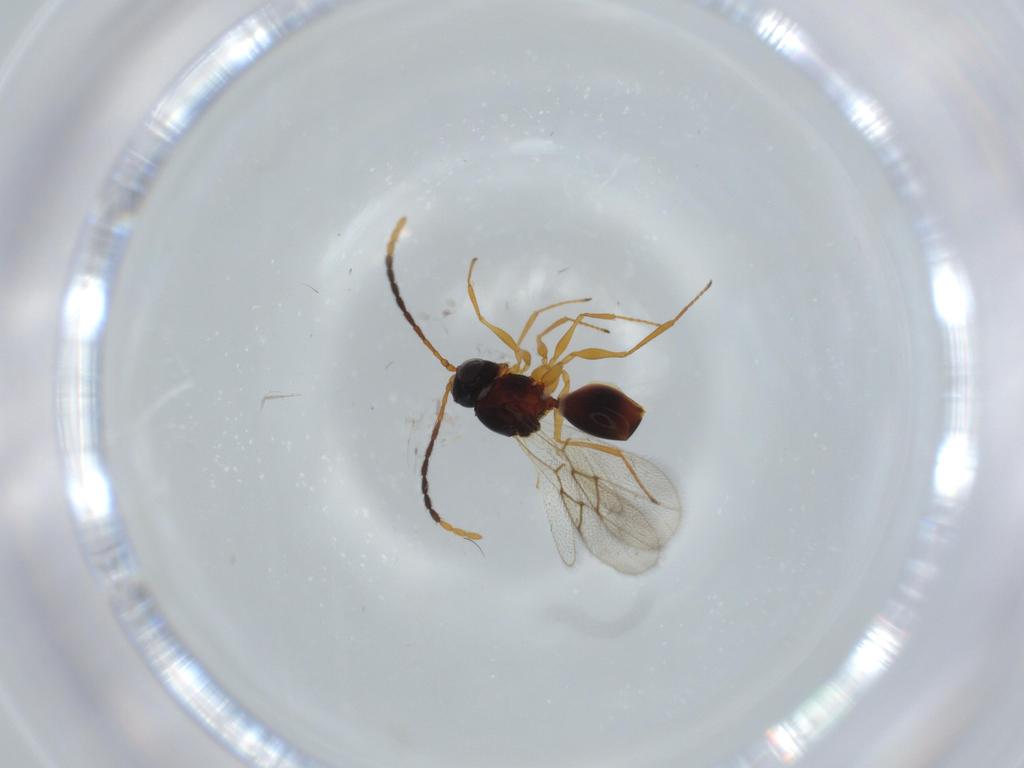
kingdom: Animalia
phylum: Arthropoda
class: Insecta
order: Hymenoptera
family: Figitidae
